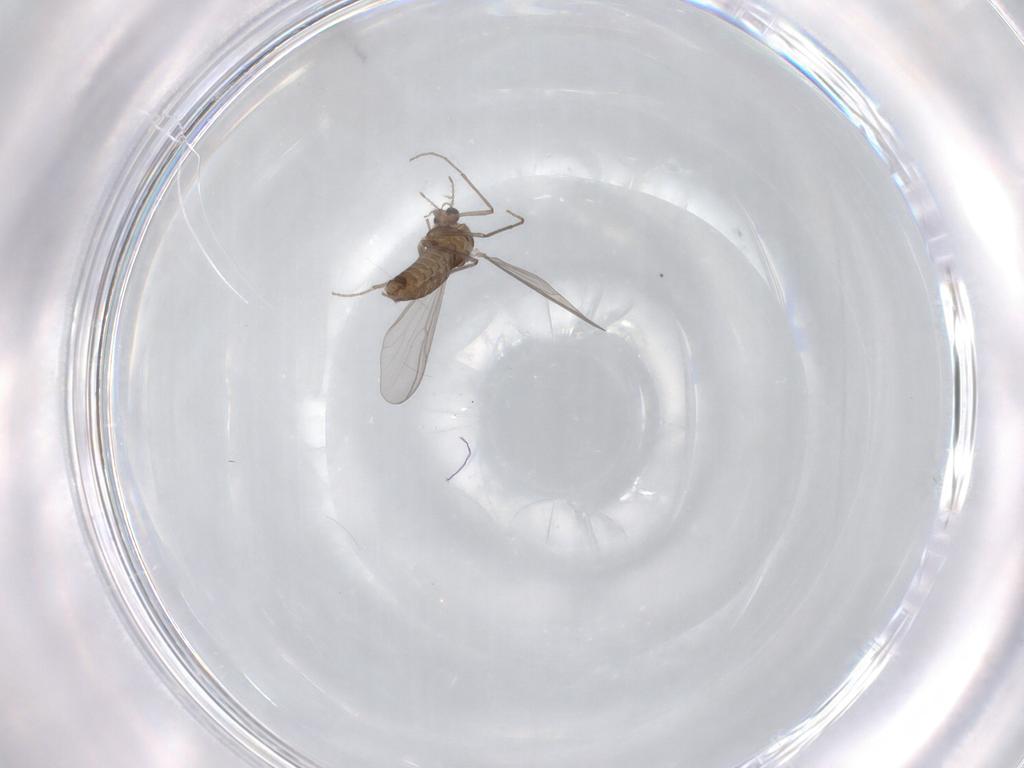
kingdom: Animalia
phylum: Arthropoda
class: Insecta
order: Diptera
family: Chironomidae
